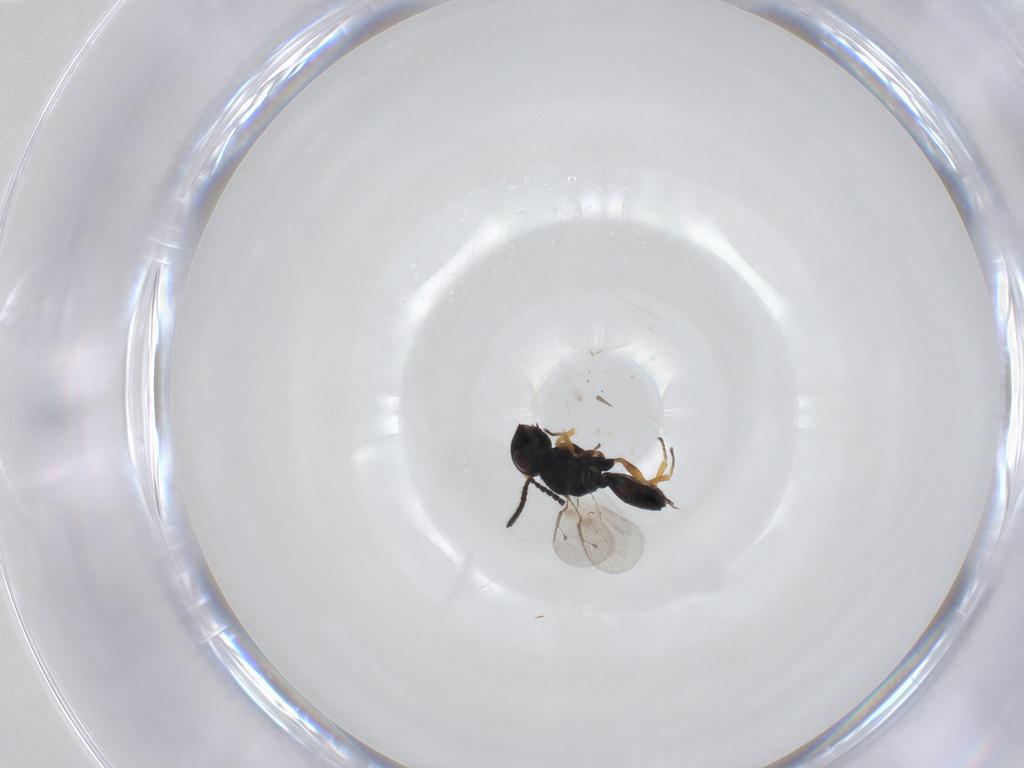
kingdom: Animalia
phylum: Arthropoda
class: Insecta
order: Hymenoptera
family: Pteromalidae
